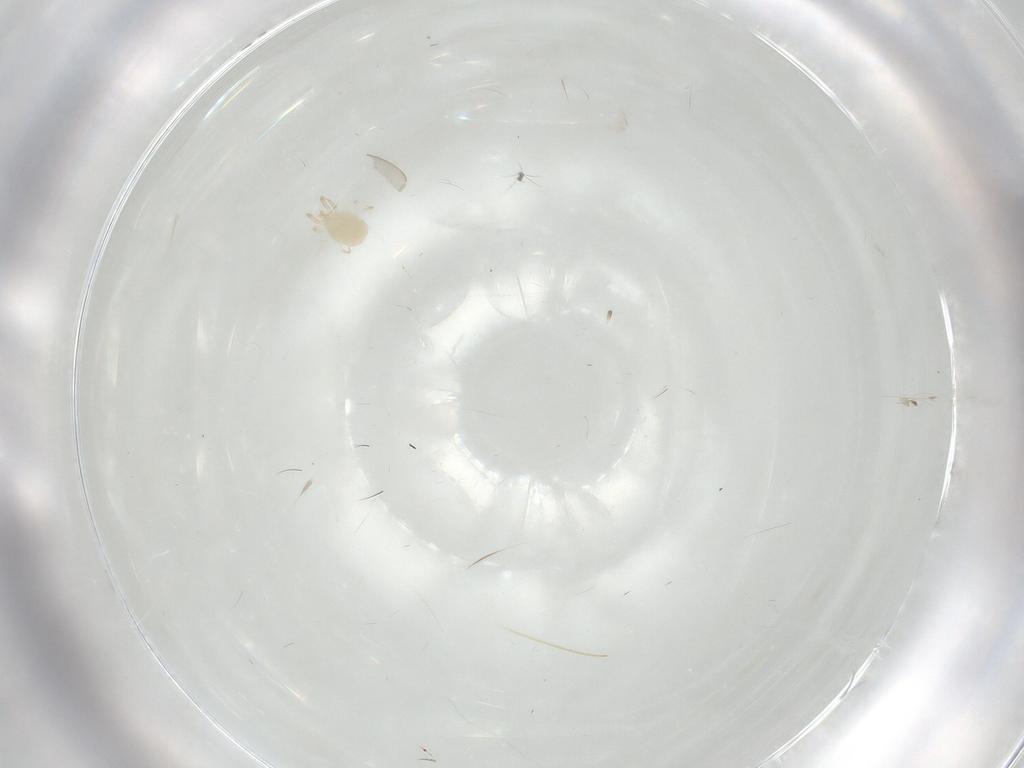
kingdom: Animalia
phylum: Arthropoda
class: Arachnida
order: Mesostigmata
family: Phytoseiidae
